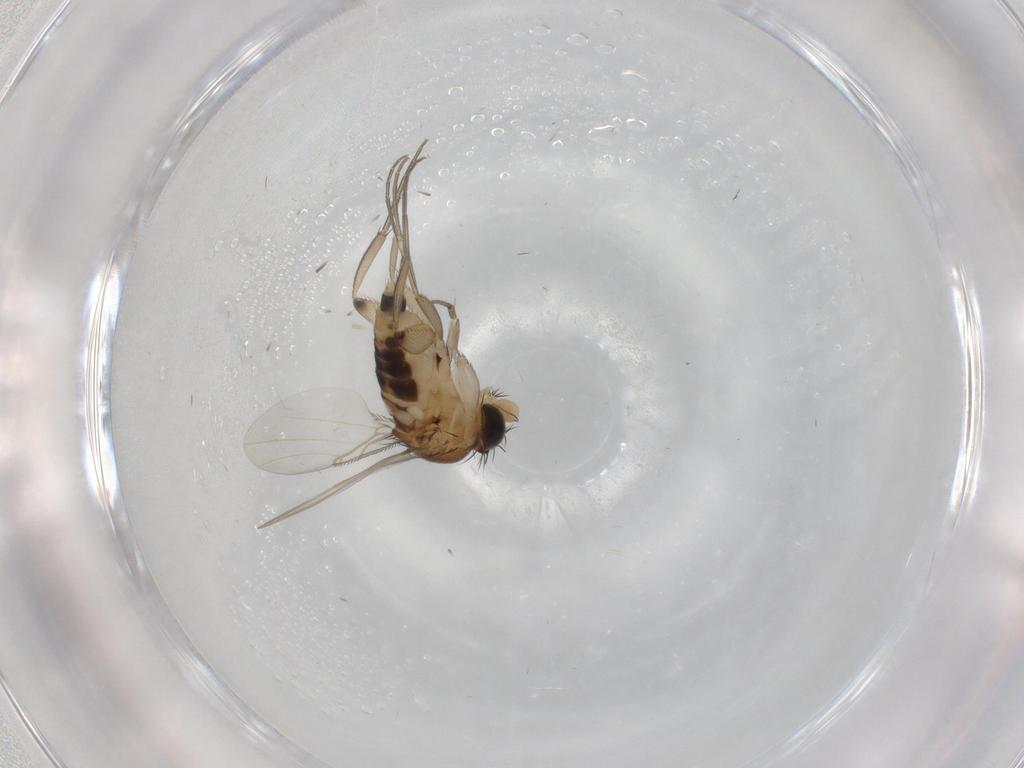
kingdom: Animalia
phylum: Arthropoda
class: Insecta
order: Diptera
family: Phoridae
